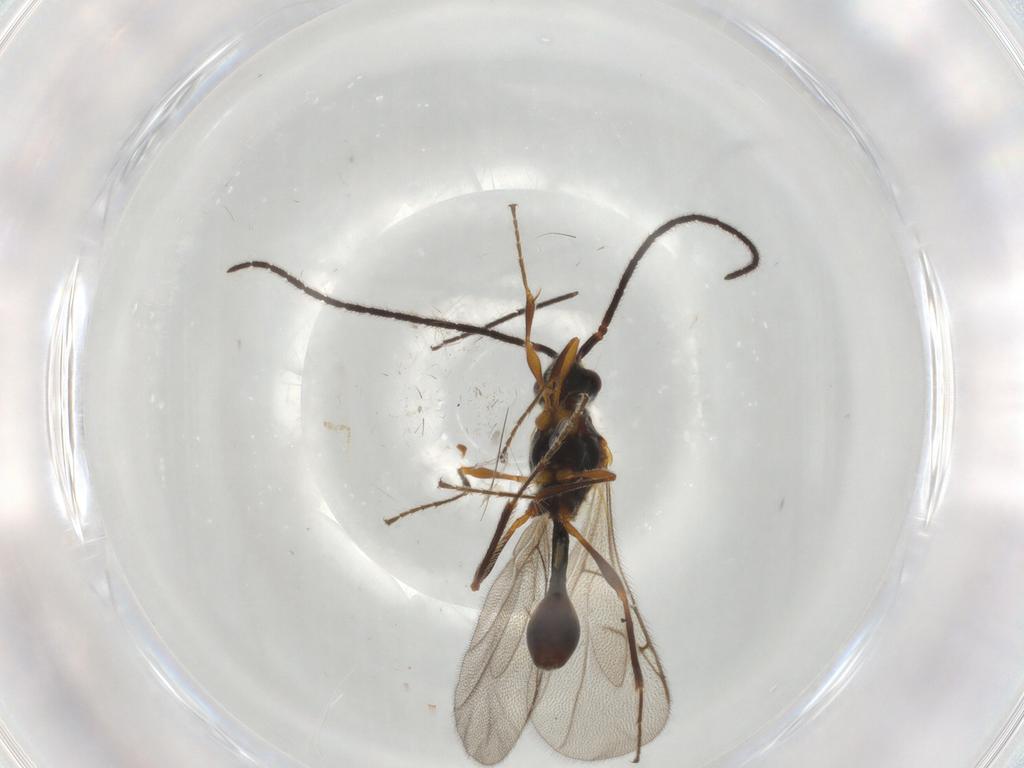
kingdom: Animalia
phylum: Arthropoda
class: Insecta
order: Hymenoptera
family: Diapriidae
